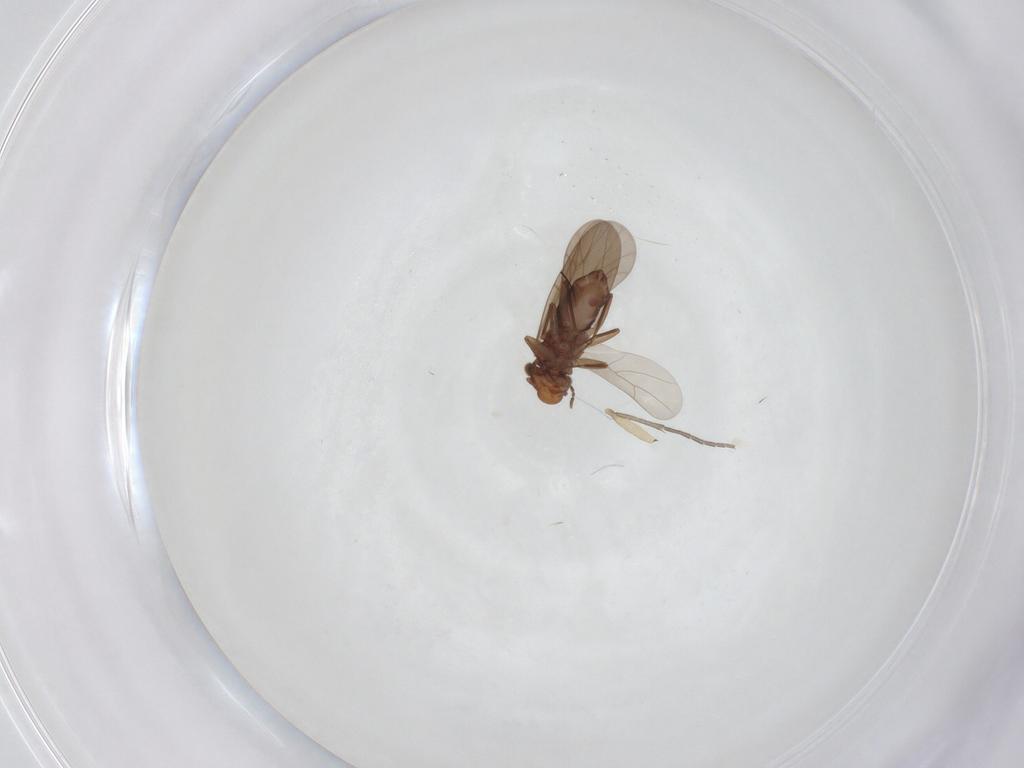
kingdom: Animalia
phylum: Arthropoda
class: Insecta
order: Diptera
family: Sciaridae
